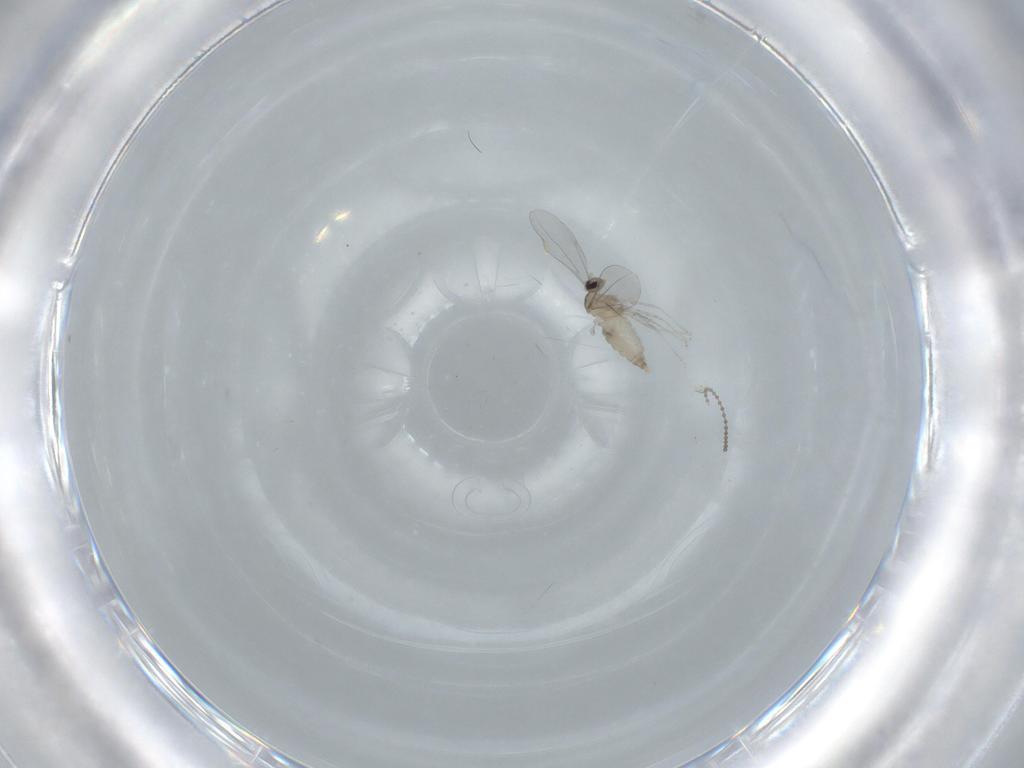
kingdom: Animalia
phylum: Arthropoda
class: Insecta
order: Diptera
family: Cecidomyiidae
